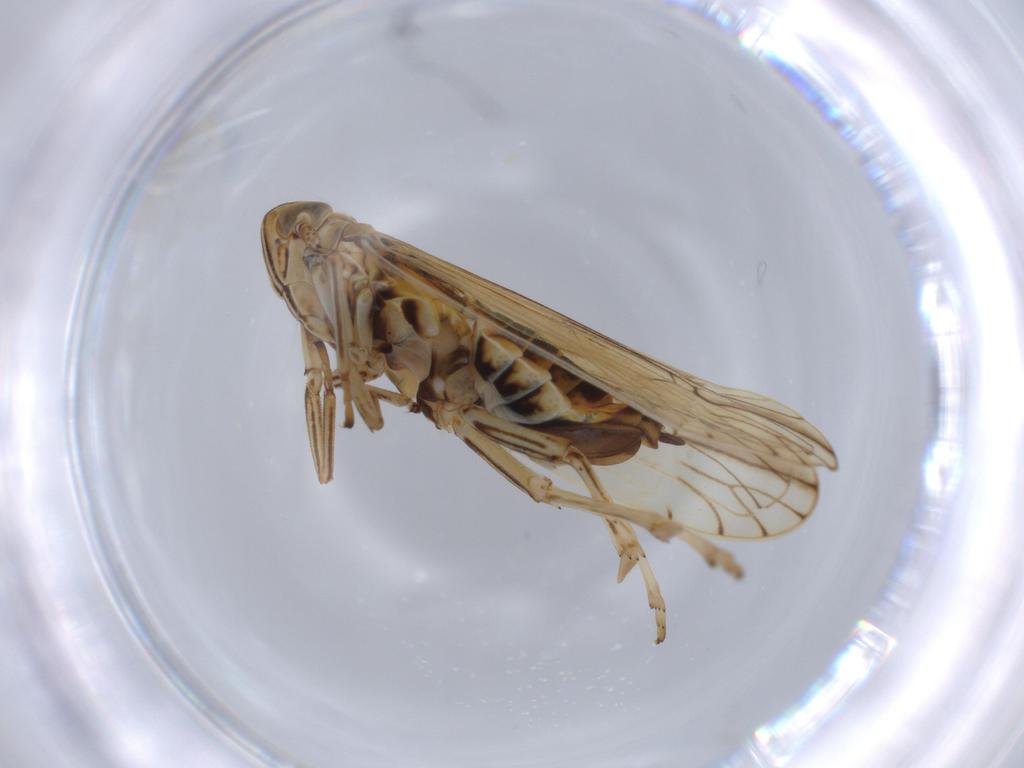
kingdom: Animalia
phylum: Arthropoda
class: Insecta
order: Hemiptera
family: Delphacidae
